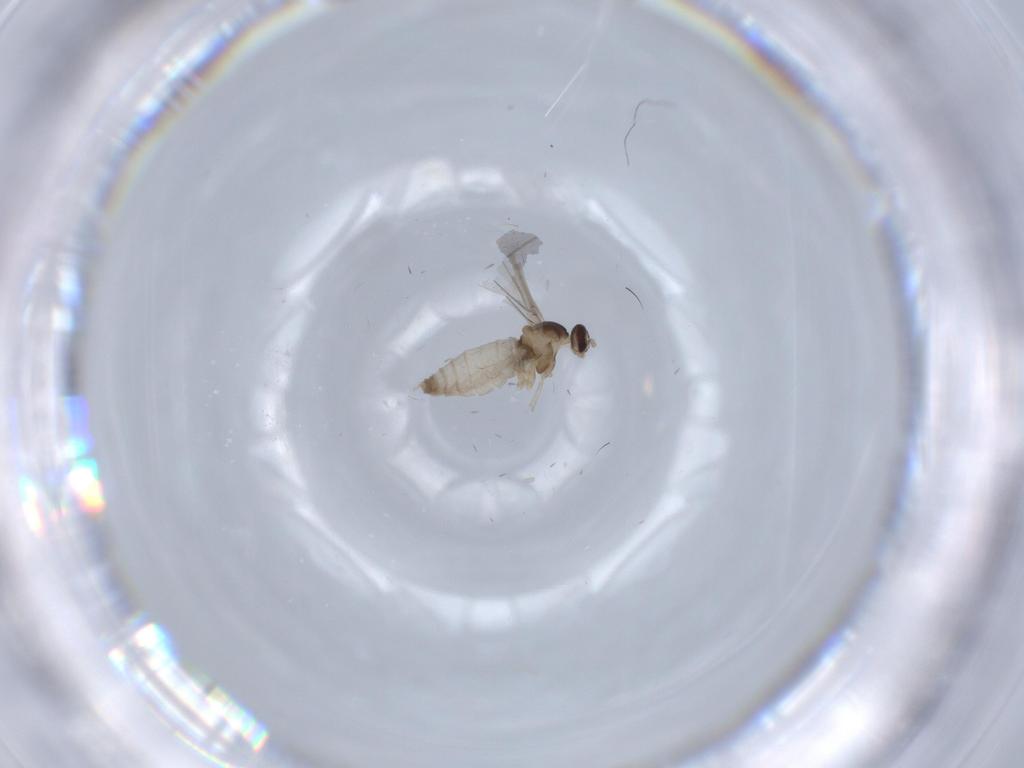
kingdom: Animalia
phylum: Arthropoda
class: Insecta
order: Diptera
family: Cecidomyiidae
